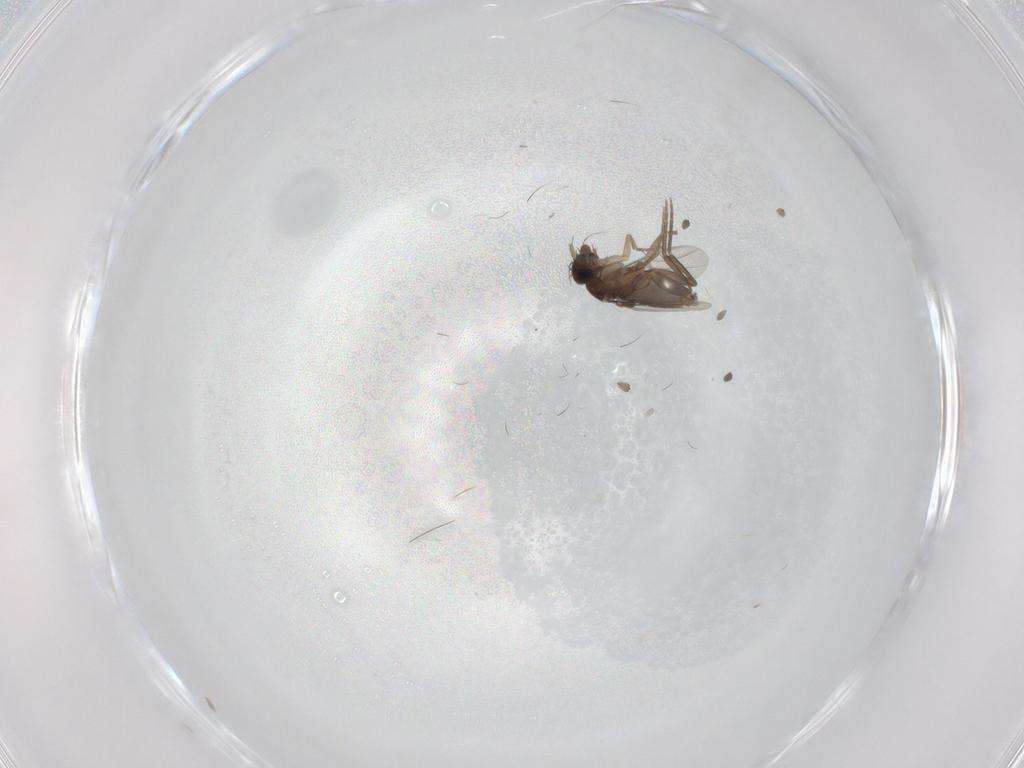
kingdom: Animalia
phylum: Arthropoda
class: Insecta
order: Diptera
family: Phoridae
